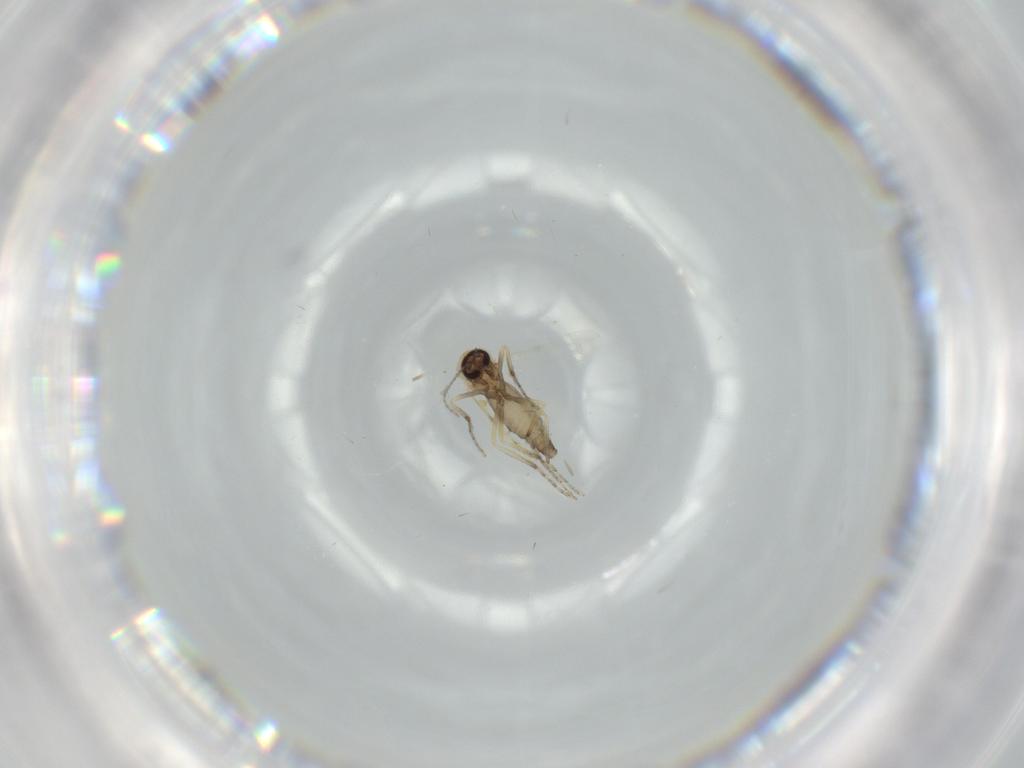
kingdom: Animalia
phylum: Arthropoda
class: Insecta
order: Diptera
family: Ceratopogonidae
